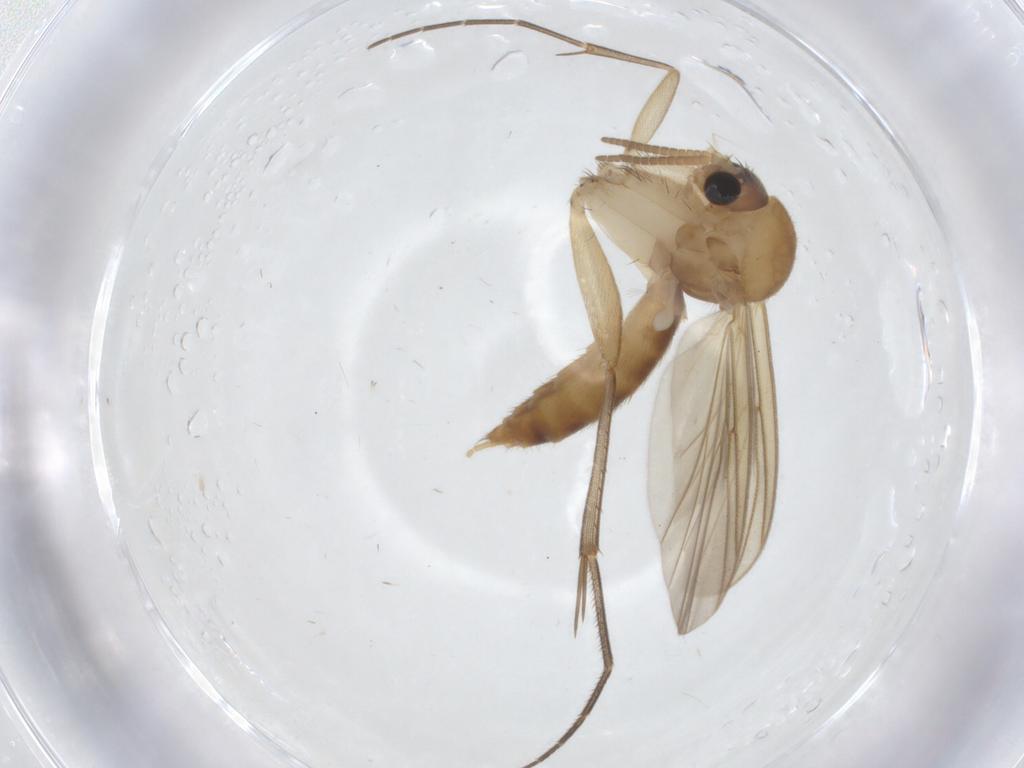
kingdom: Animalia
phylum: Arthropoda
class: Insecta
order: Diptera
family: Mycetophilidae
